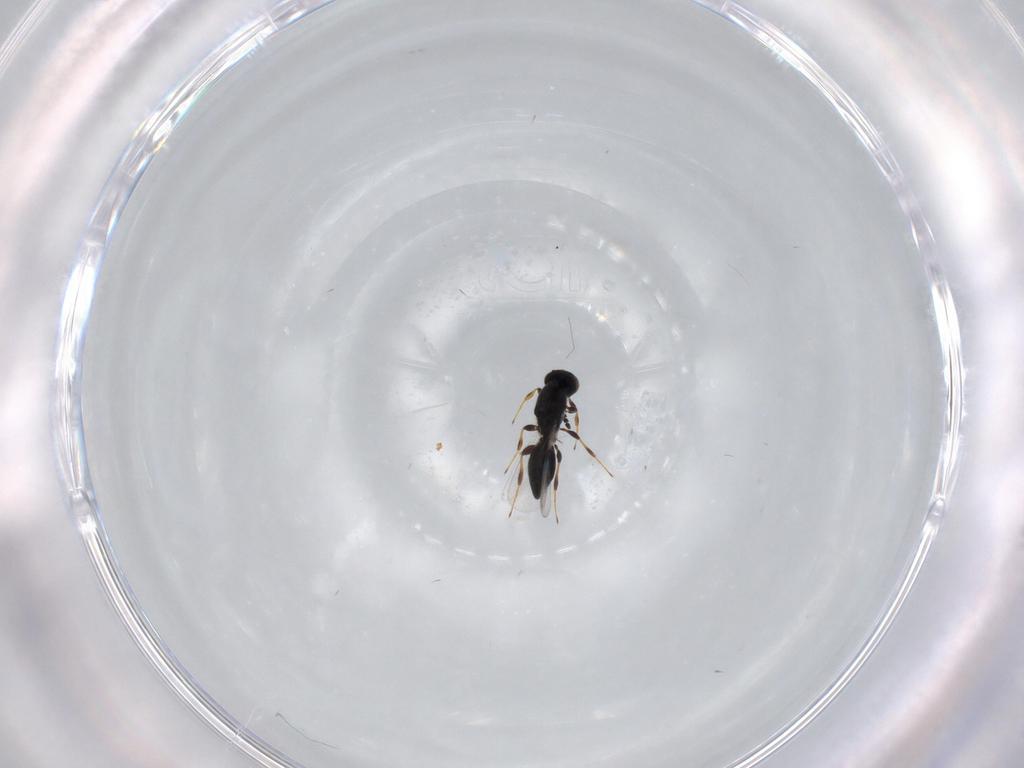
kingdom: Animalia
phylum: Arthropoda
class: Insecta
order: Hymenoptera
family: Platygastridae
